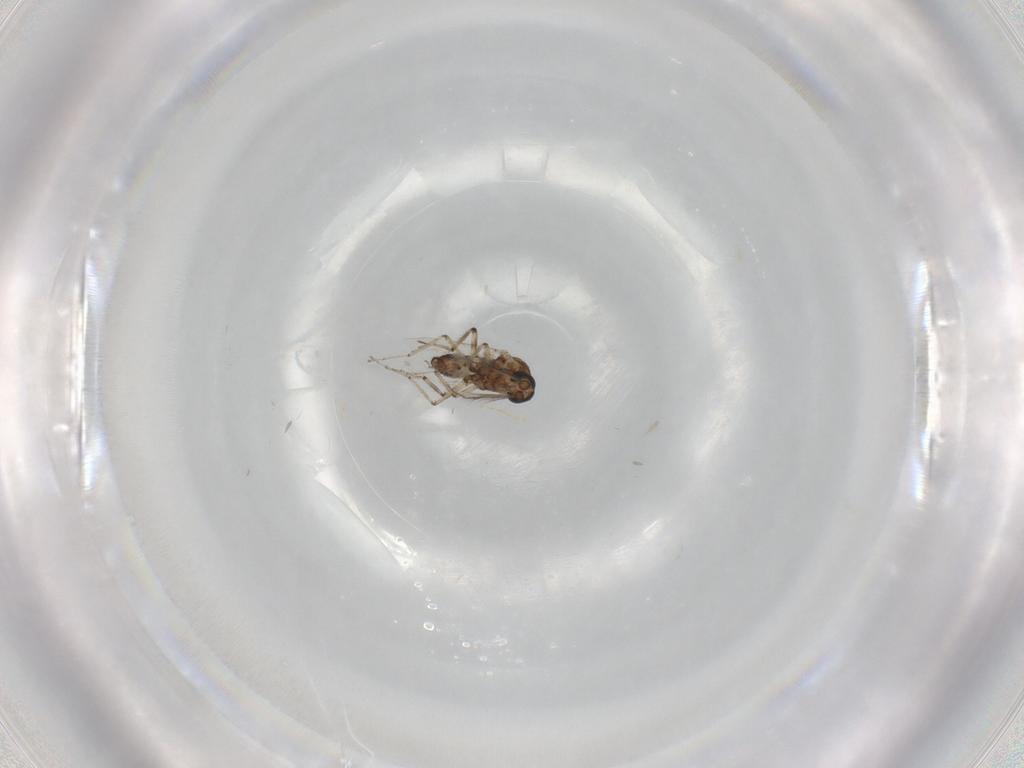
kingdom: Animalia
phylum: Arthropoda
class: Insecta
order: Diptera
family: Ceratopogonidae
